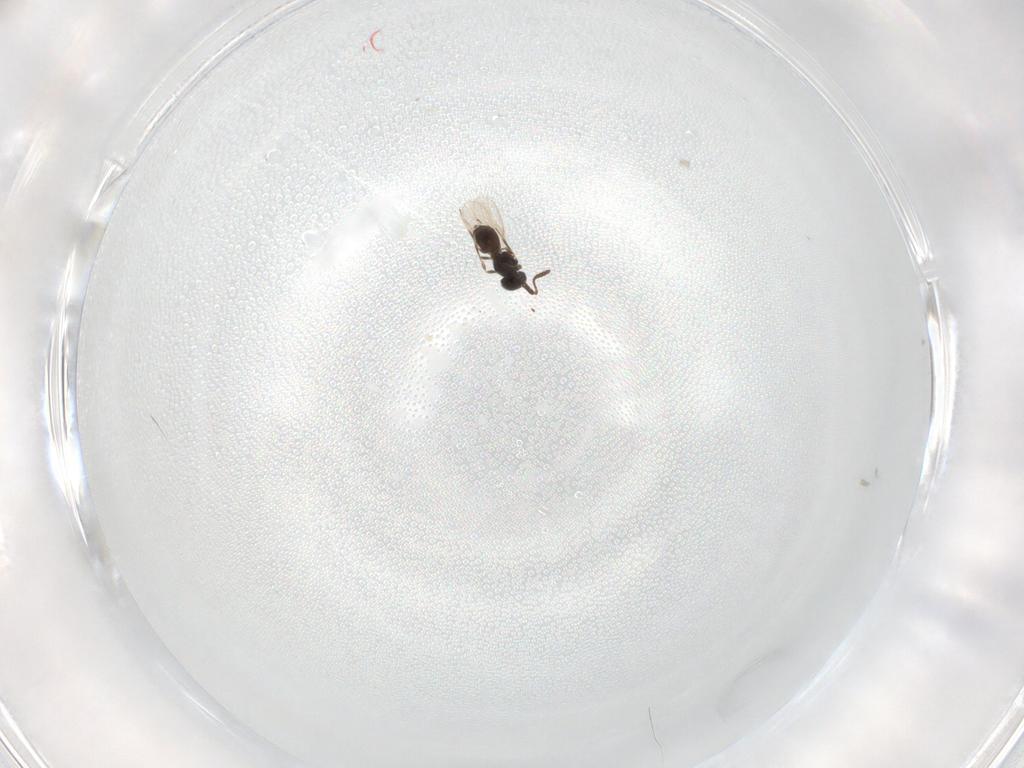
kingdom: Animalia
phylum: Arthropoda
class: Insecta
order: Hymenoptera
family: Scelionidae
